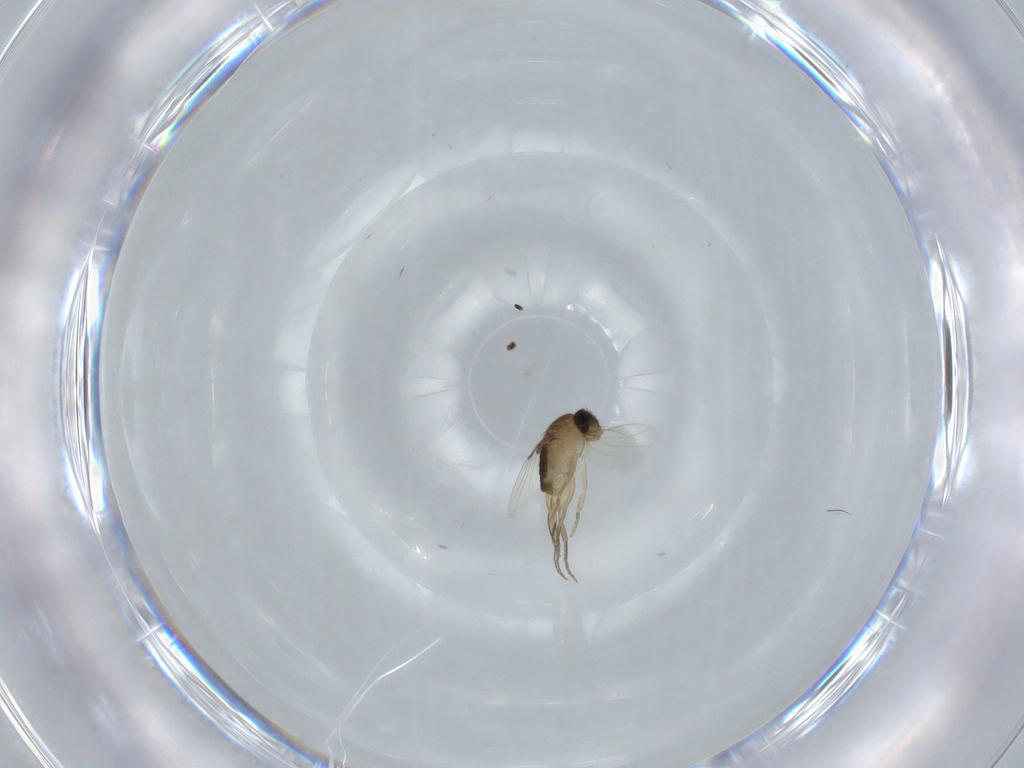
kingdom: Animalia
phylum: Arthropoda
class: Insecta
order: Diptera
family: Phoridae
